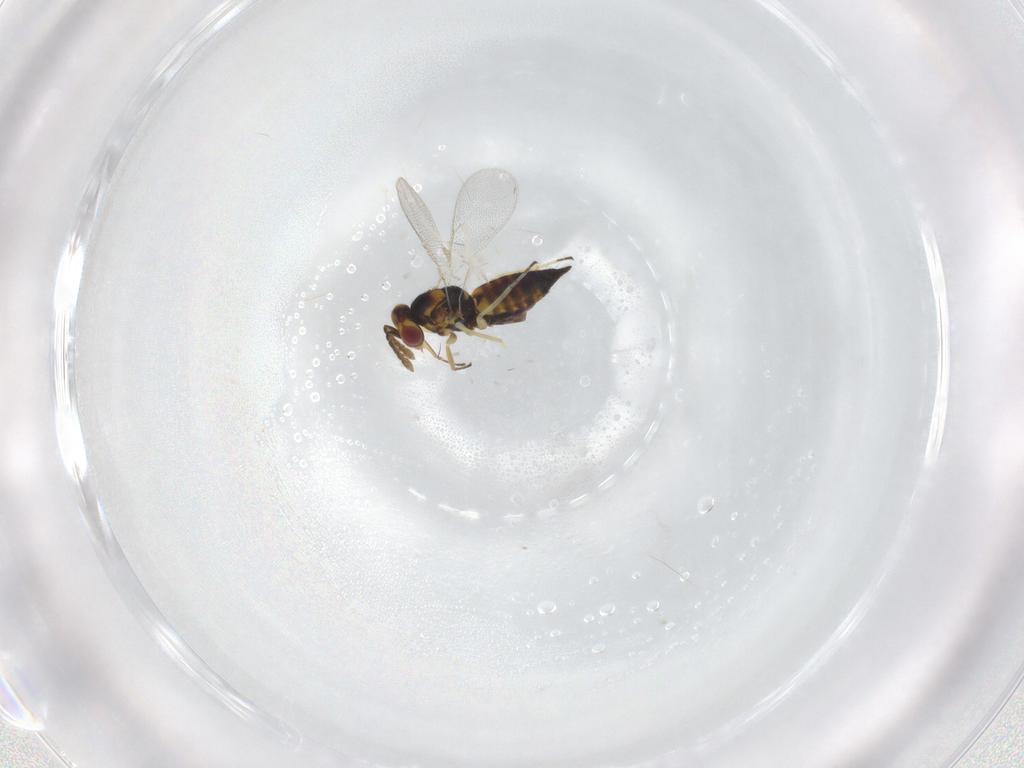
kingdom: Animalia
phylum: Arthropoda
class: Insecta
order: Hymenoptera
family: Eulophidae
